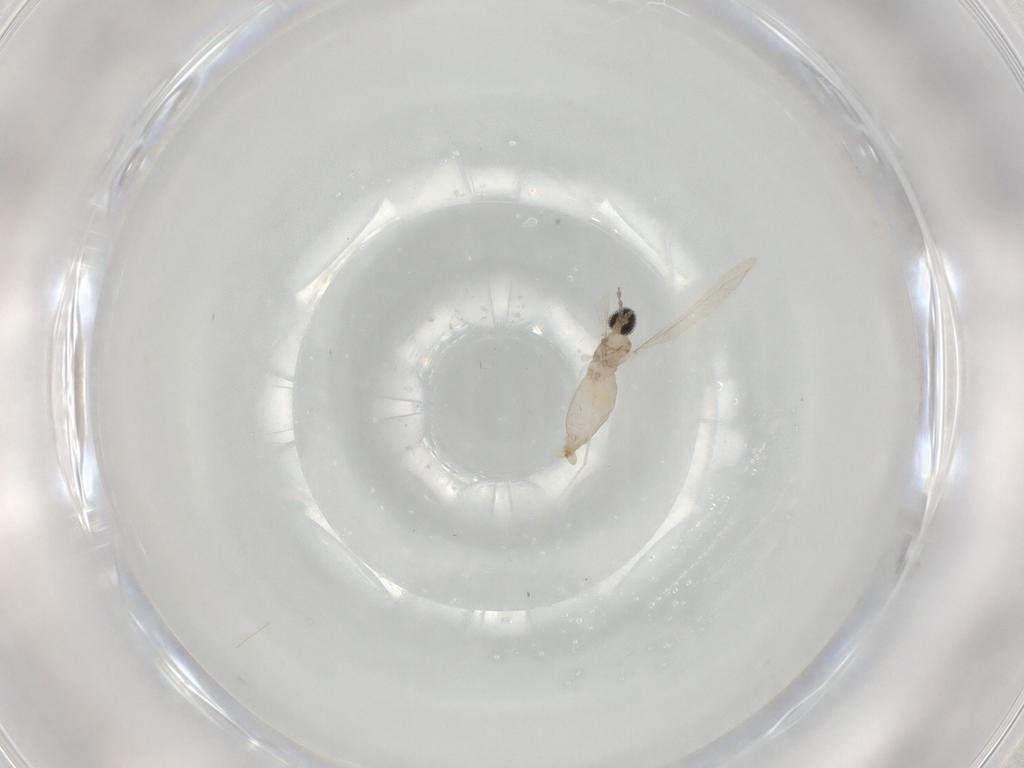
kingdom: Animalia
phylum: Arthropoda
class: Insecta
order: Diptera
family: Cecidomyiidae
